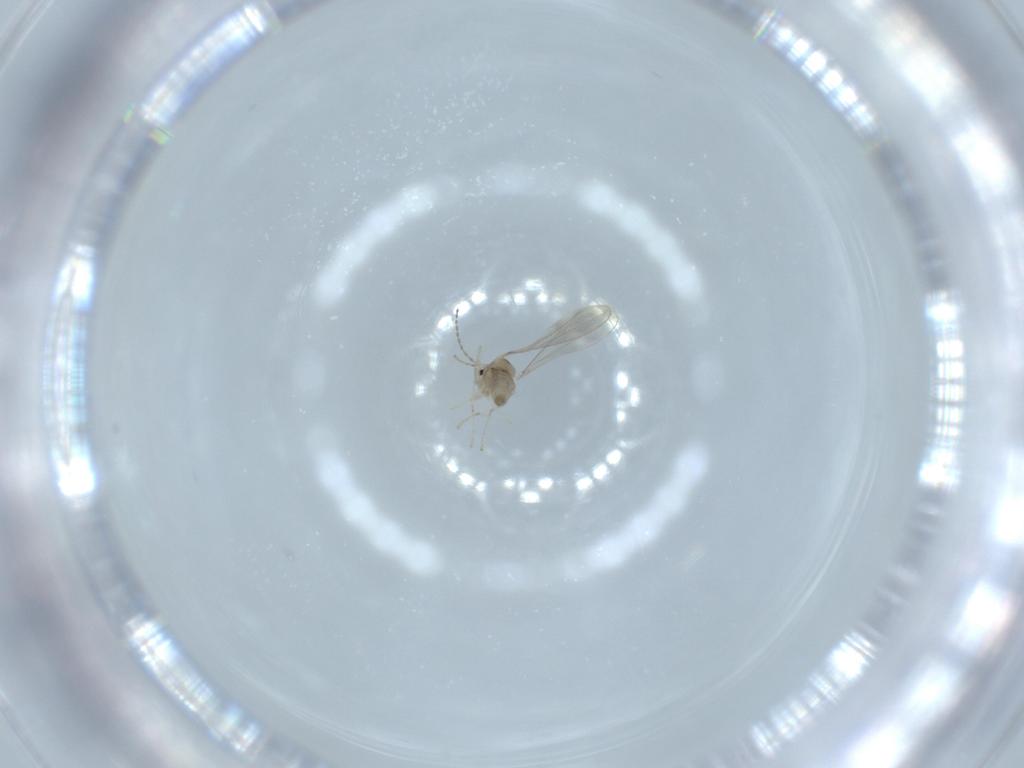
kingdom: Animalia
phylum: Arthropoda
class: Insecta
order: Diptera
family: Cecidomyiidae
